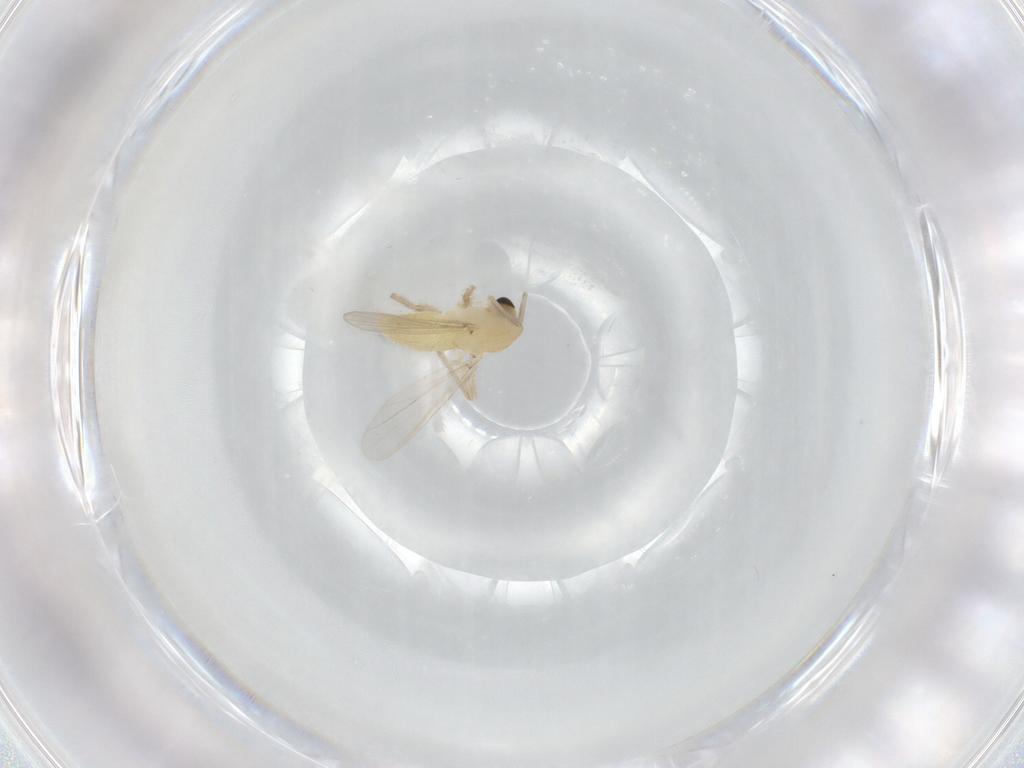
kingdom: Animalia
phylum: Arthropoda
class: Insecta
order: Diptera
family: Chironomidae
